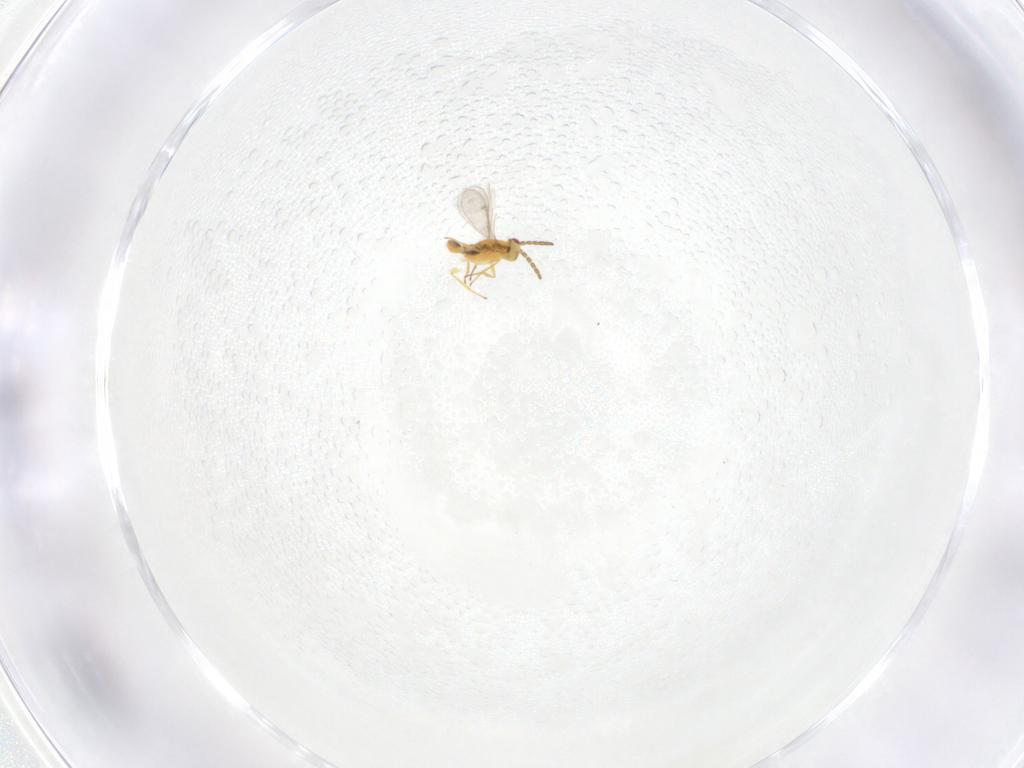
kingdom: Animalia
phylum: Arthropoda
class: Insecta
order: Hymenoptera
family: Aphelinidae
